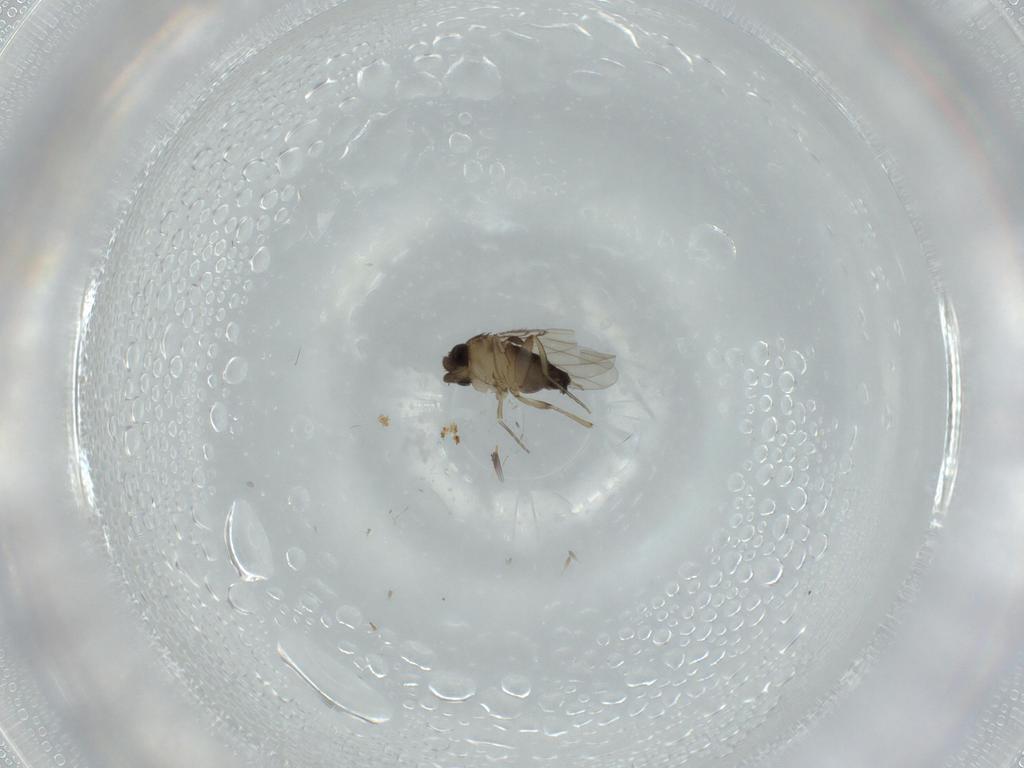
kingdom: Animalia
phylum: Arthropoda
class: Insecta
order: Diptera
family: Phoridae
